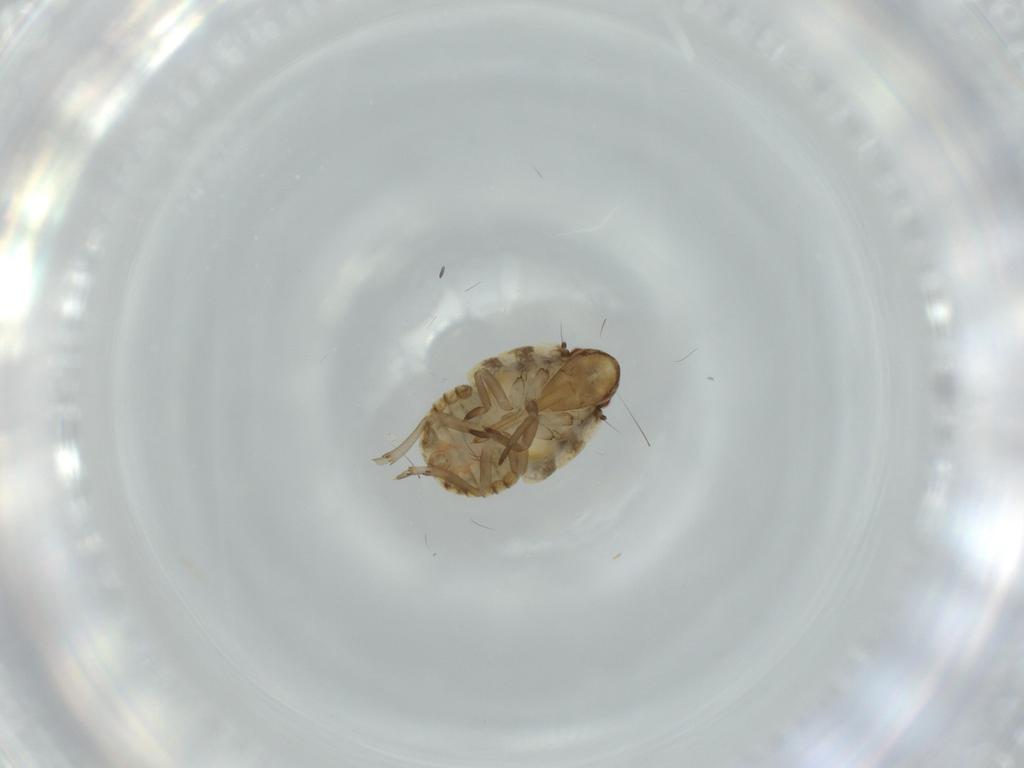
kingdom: Animalia
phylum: Arthropoda
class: Insecta
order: Hemiptera
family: Flatidae
